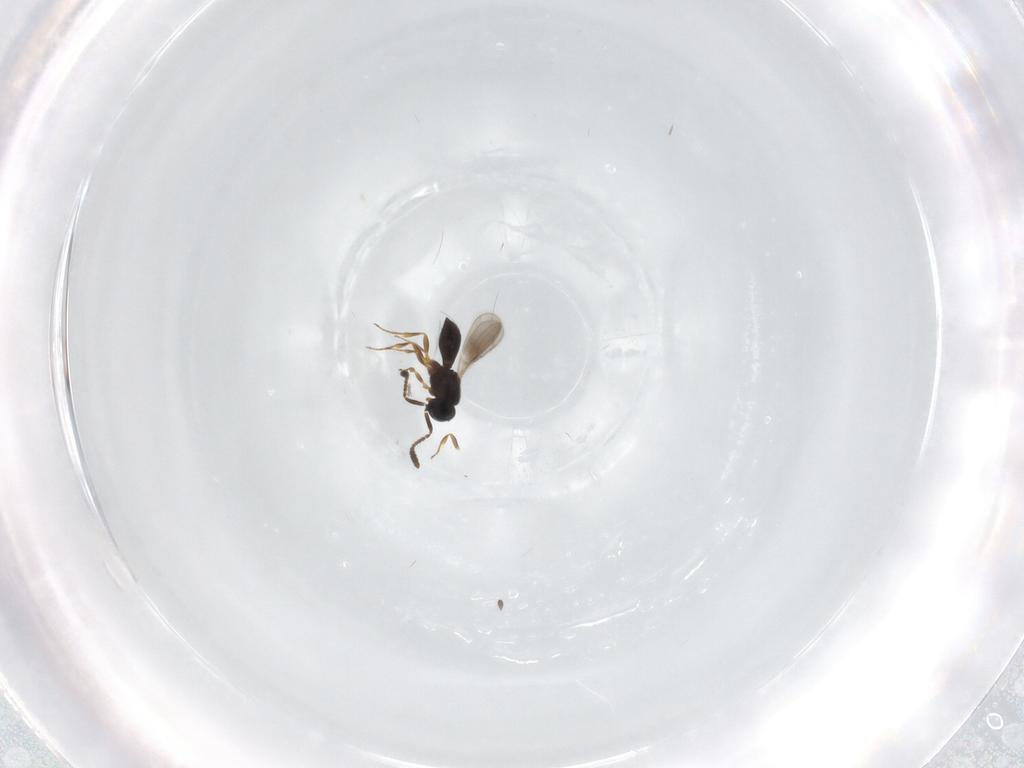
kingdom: Animalia
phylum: Arthropoda
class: Insecta
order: Hymenoptera
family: Scelionidae
